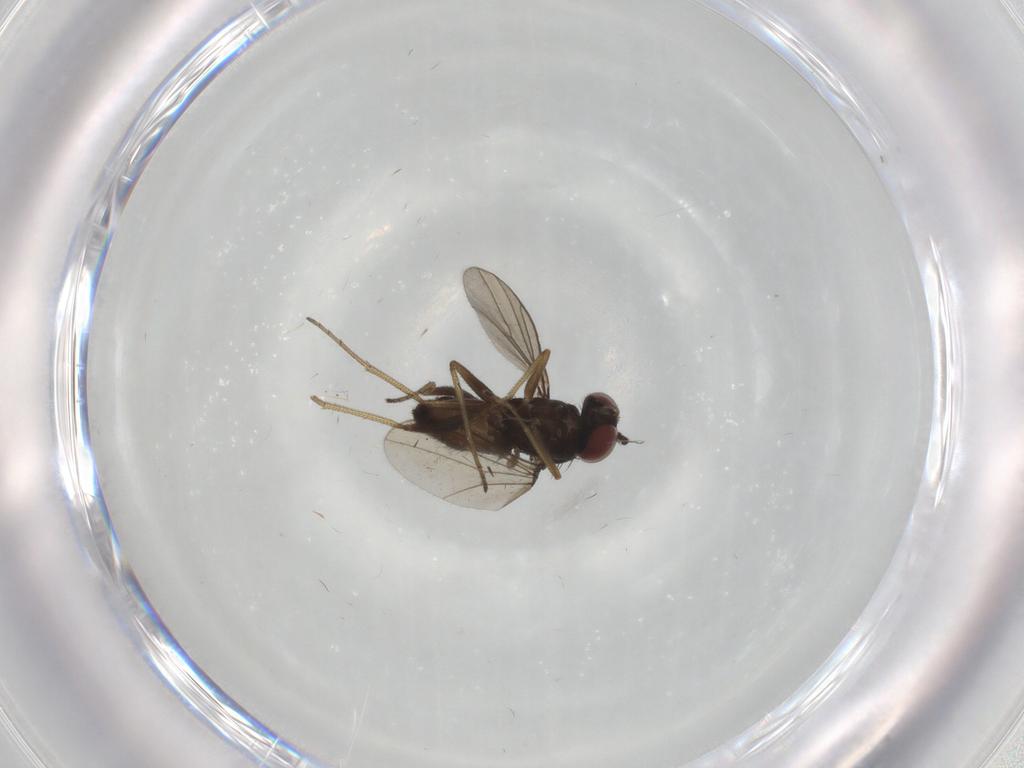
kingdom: Animalia
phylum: Arthropoda
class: Insecta
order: Diptera
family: Dolichopodidae
